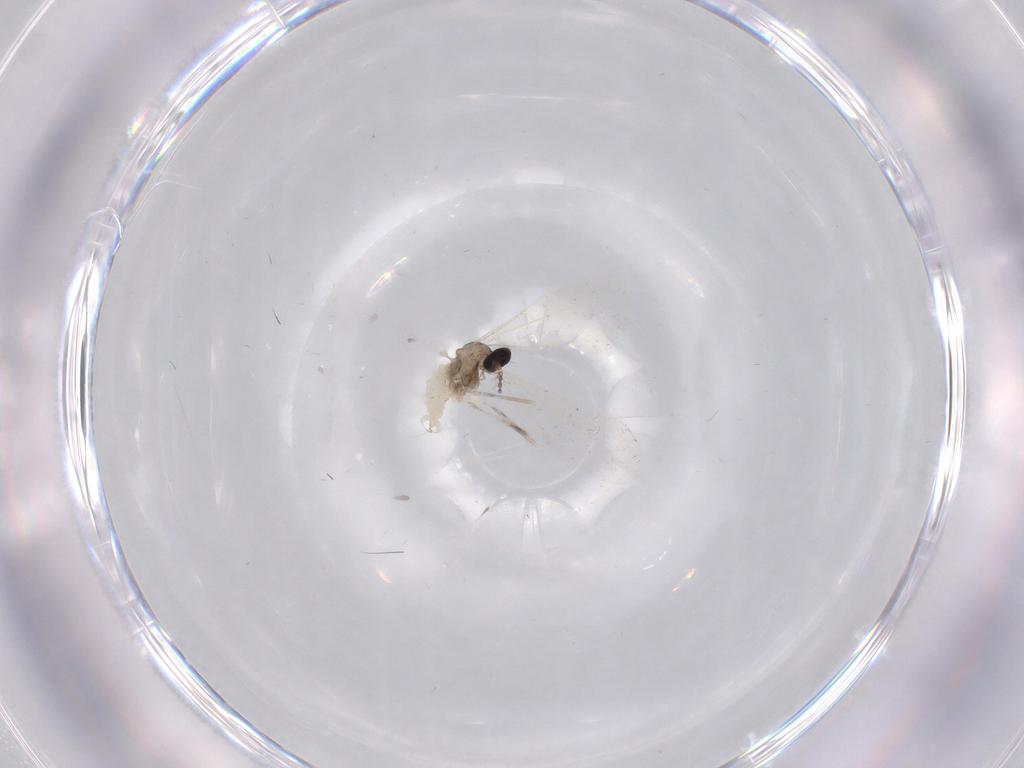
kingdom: Animalia
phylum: Arthropoda
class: Insecta
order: Diptera
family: Cecidomyiidae
